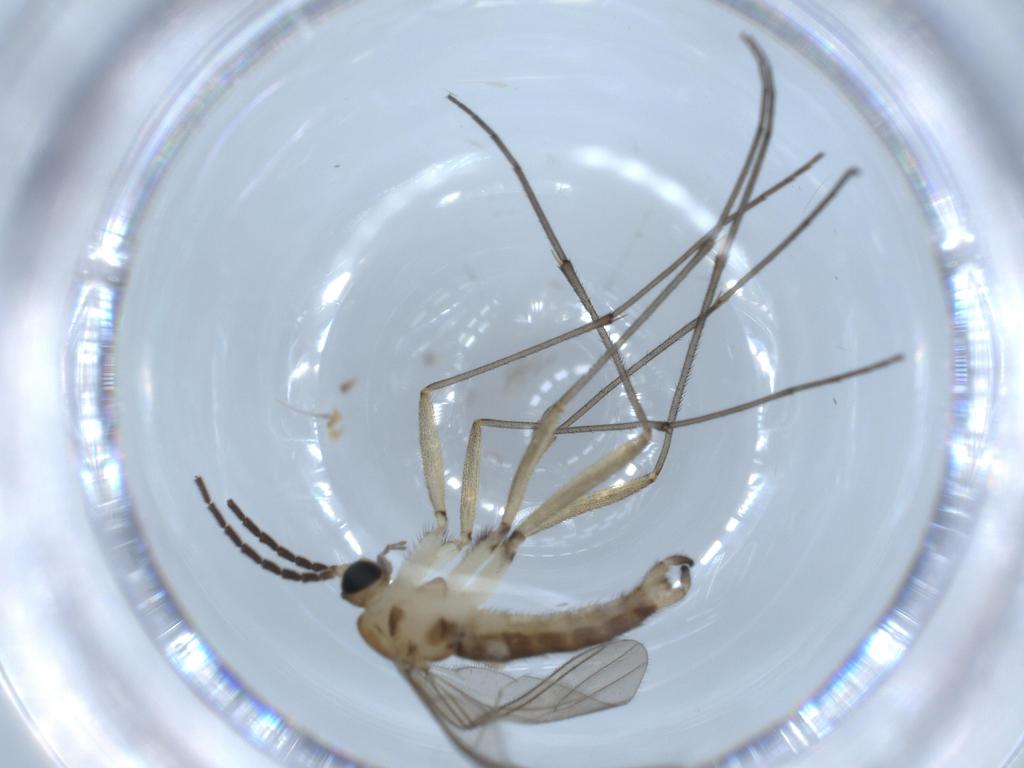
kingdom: Animalia
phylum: Arthropoda
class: Insecta
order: Diptera
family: Sciaridae
